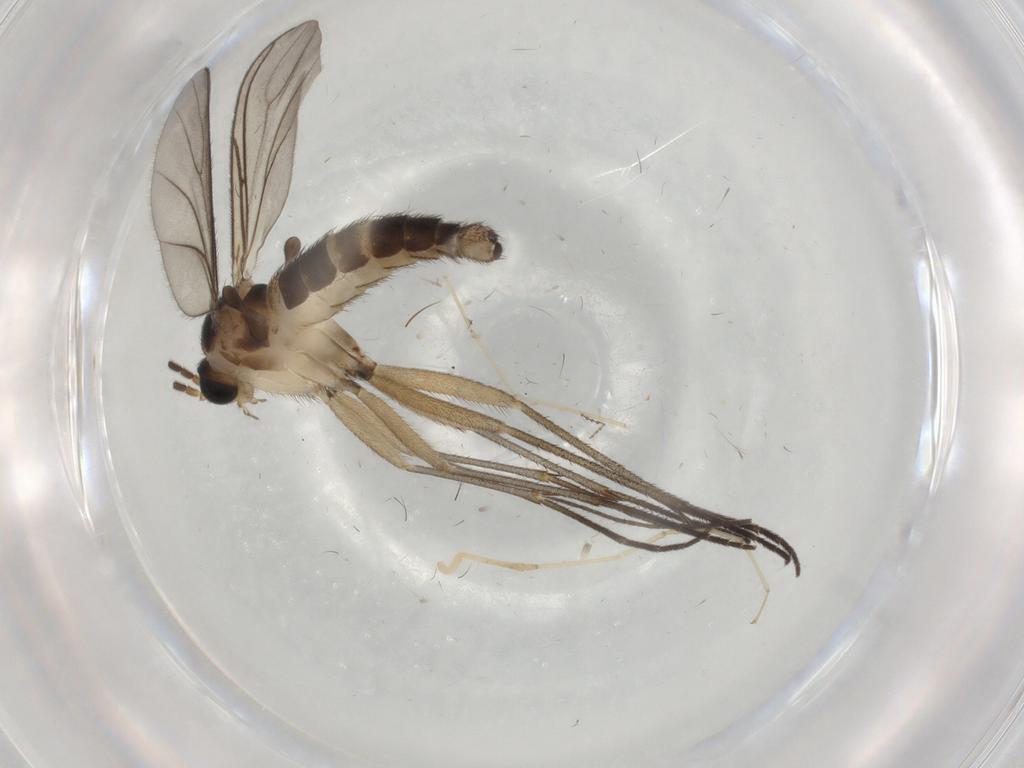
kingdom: Animalia
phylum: Arthropoda
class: Insecta
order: Diptera
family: Sciaridae
